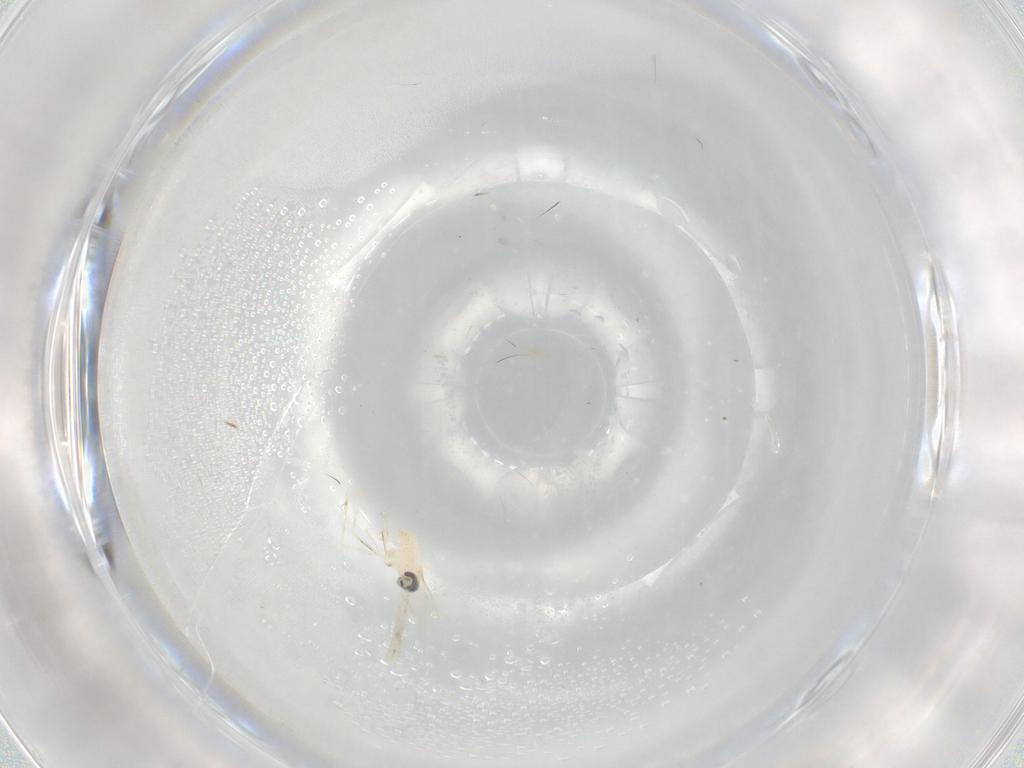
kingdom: Animalia
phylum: Arthropoda
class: Insecta
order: Diptera
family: Cecidomyiidae
